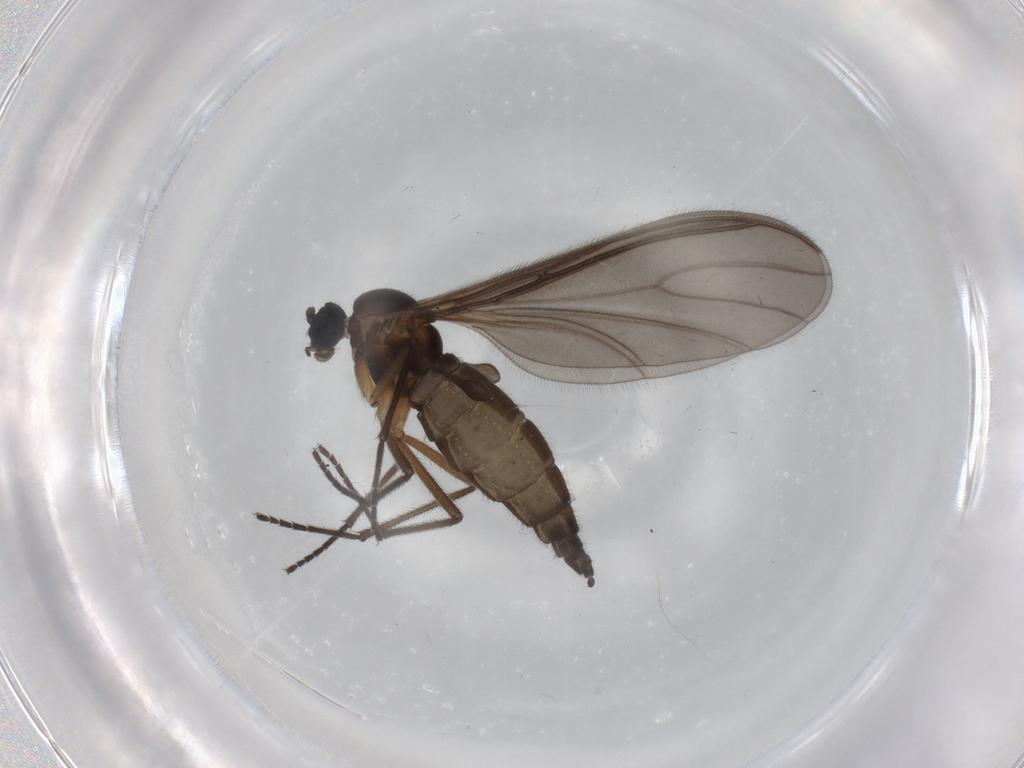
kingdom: Animalia
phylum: Arthropoda
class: Insecta
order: Diptera
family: Sciaridae
